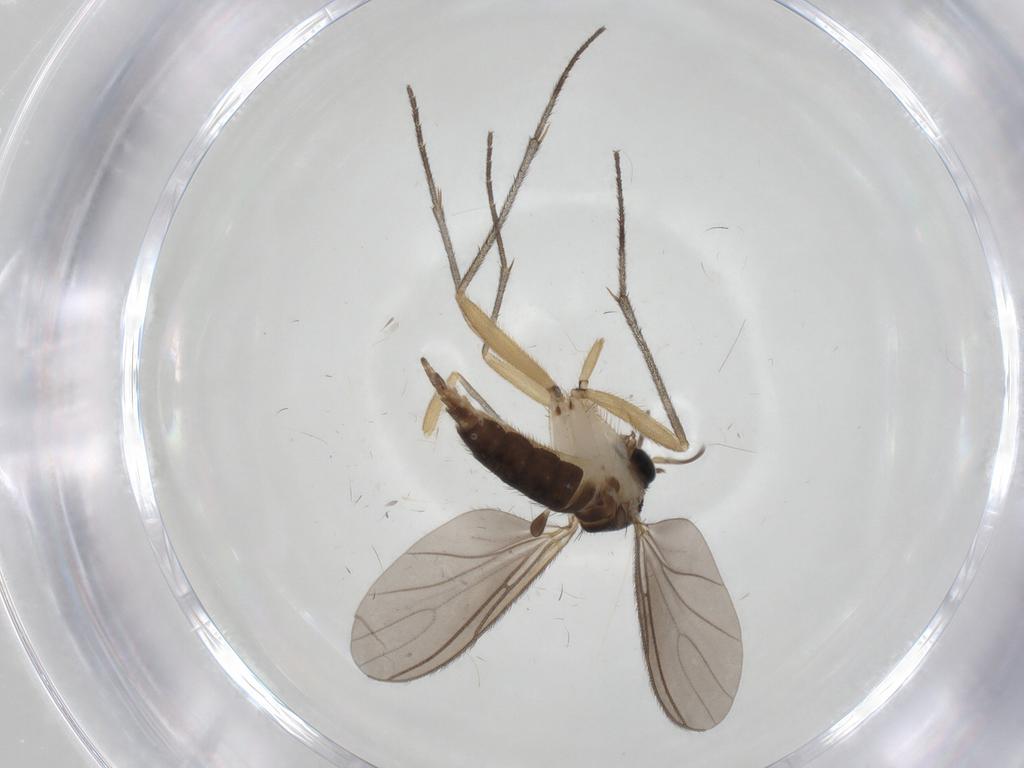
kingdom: Animalia
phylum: Arthropoda
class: Insecta
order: Diptera
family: Sciaridae
